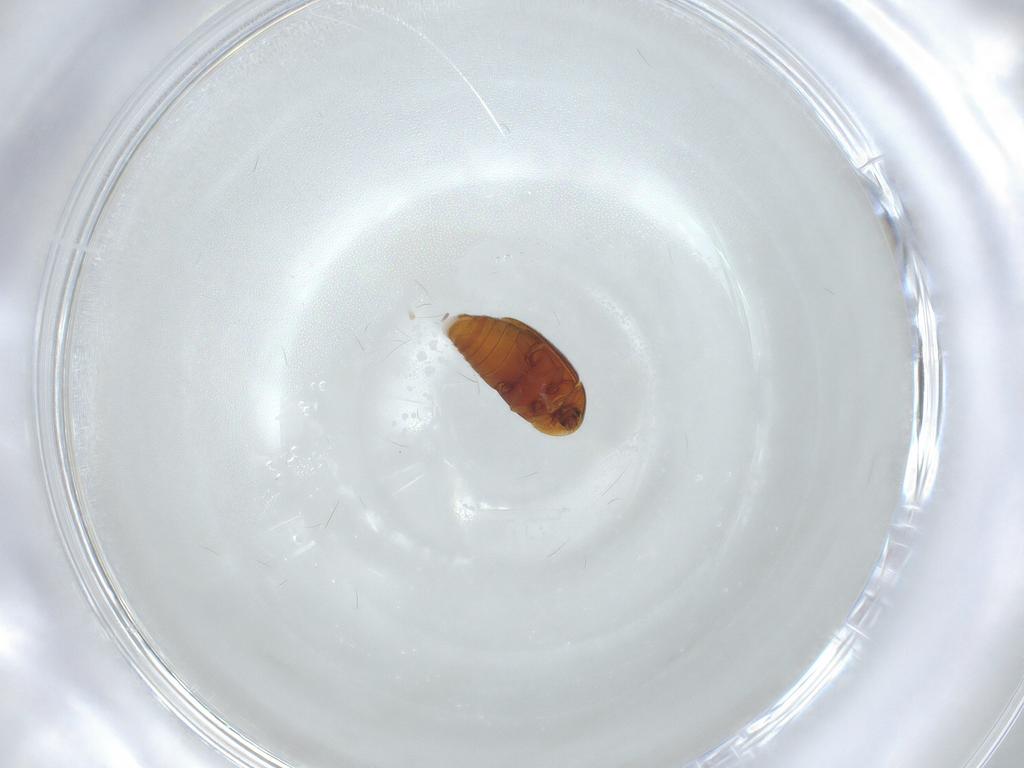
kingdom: Animalia
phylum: Arthropoda
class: Insecta
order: Coleoptera
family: Corylophidae
